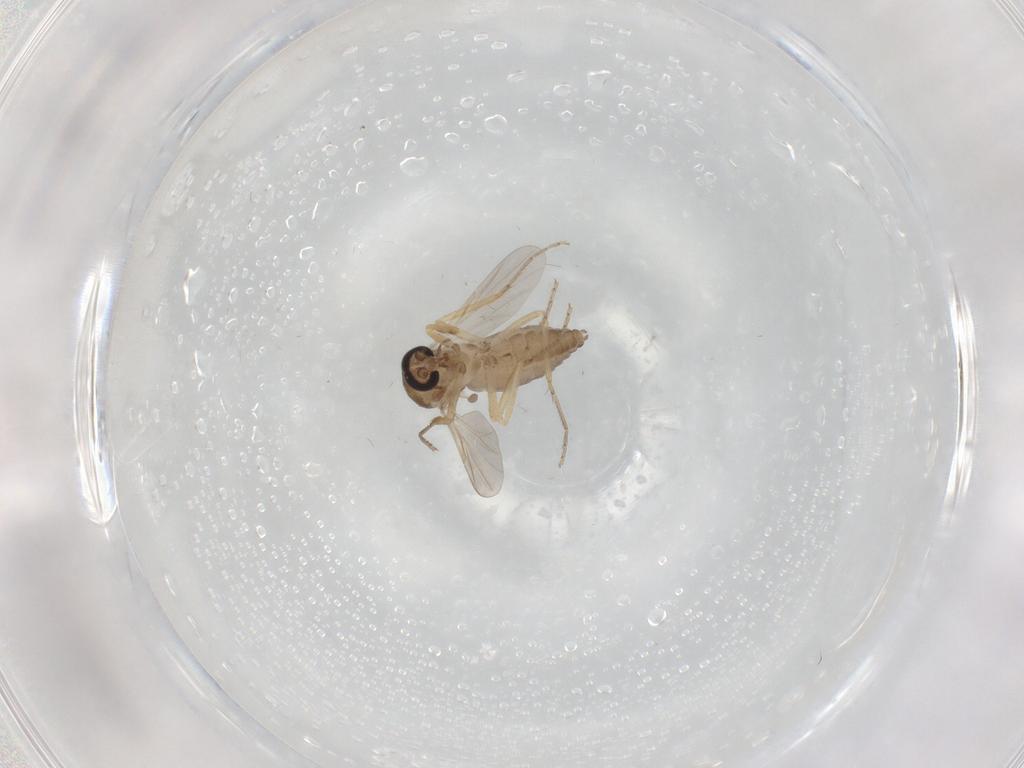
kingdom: Animalia
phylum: Arthropoda
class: Insecta
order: Diptera
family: Ceratopogonidae
